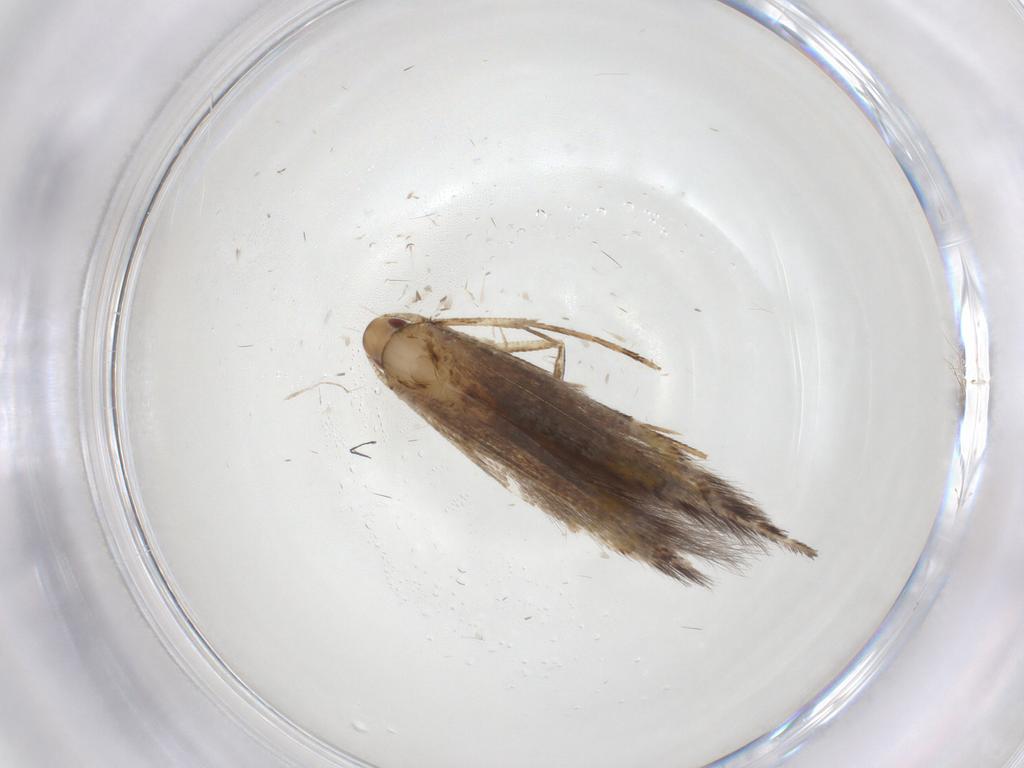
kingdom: Animalia
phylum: Arthropoda
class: Insecta
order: Lepidoptera
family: Cosmopterigidae
